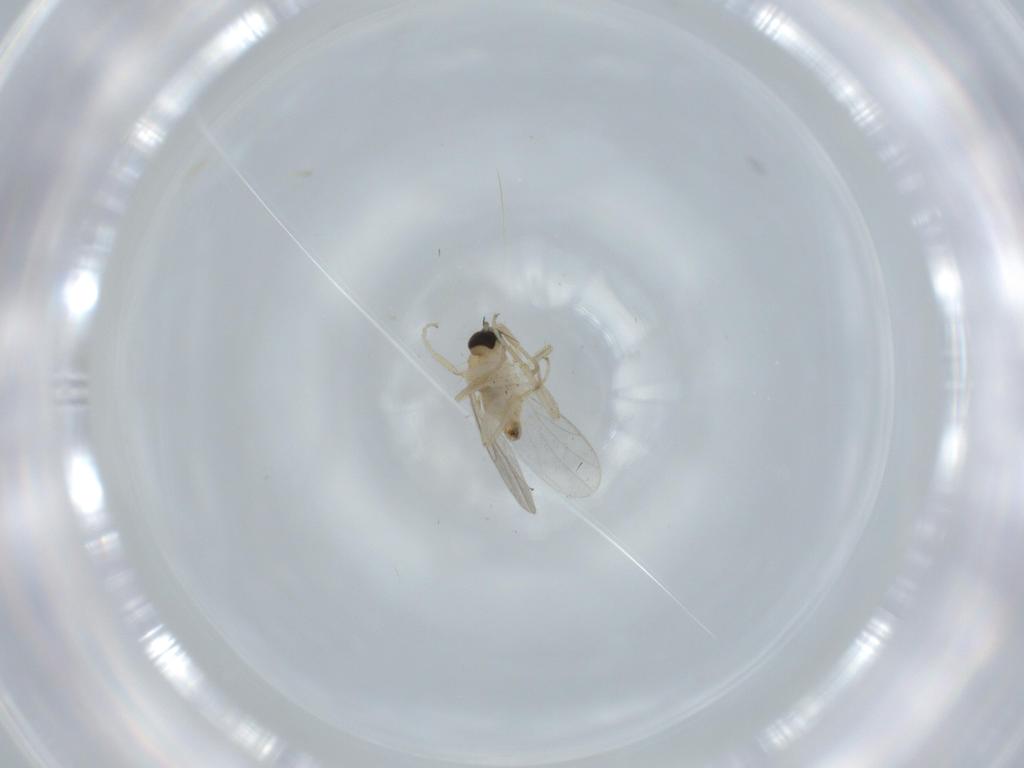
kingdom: Animalia
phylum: Arthropoda
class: Insecta
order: Diptera
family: Hybotidae
